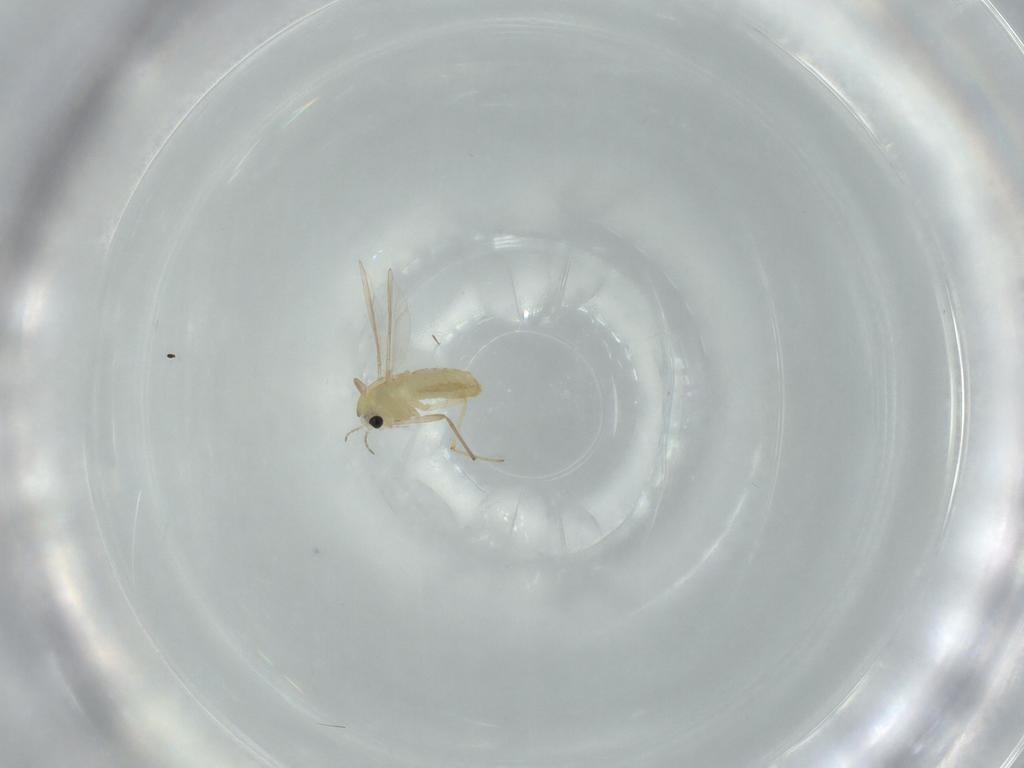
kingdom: Animalia
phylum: Arthropoda
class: Insecta
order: Diptera
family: Chironomidae
